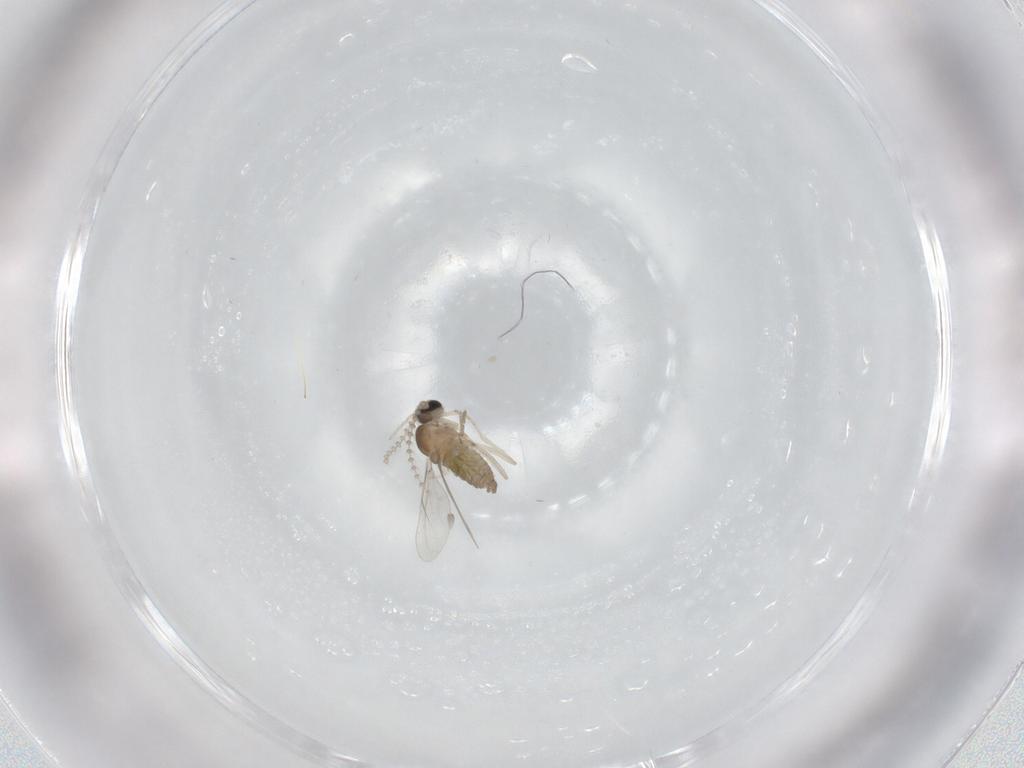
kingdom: Animalia
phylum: Arthropoda
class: Insecta
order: Diptera
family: Cecidomyiidae
